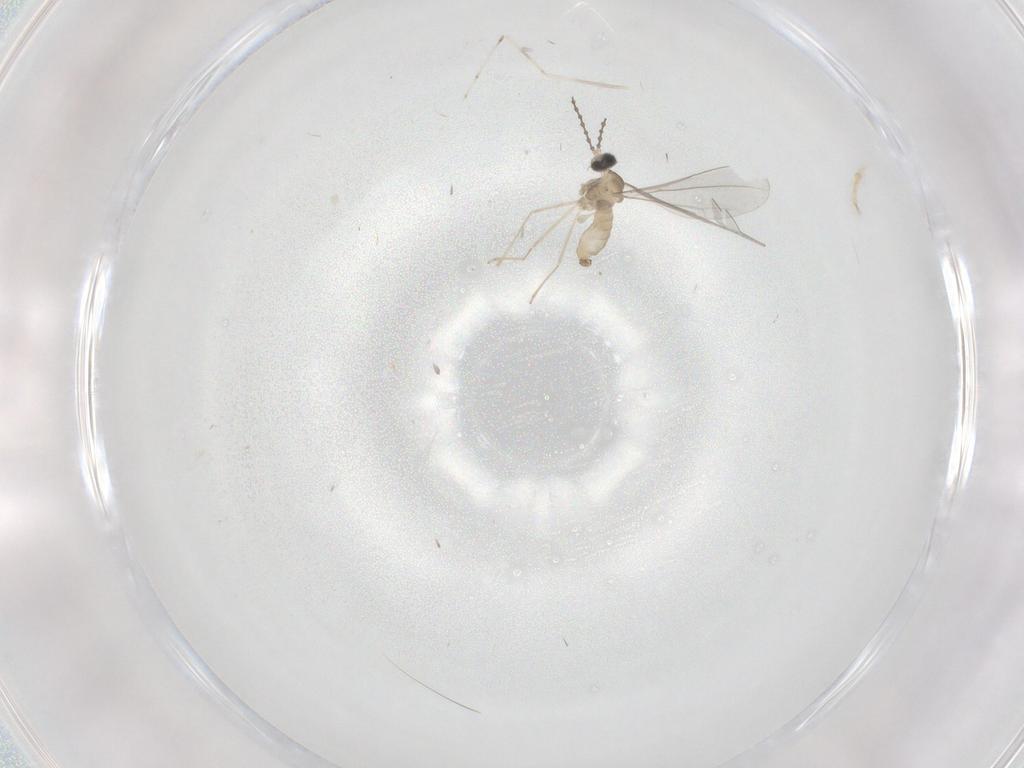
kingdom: Animalia
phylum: Arthropoda
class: Insecta
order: Diptera
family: Cecidomyiidae
